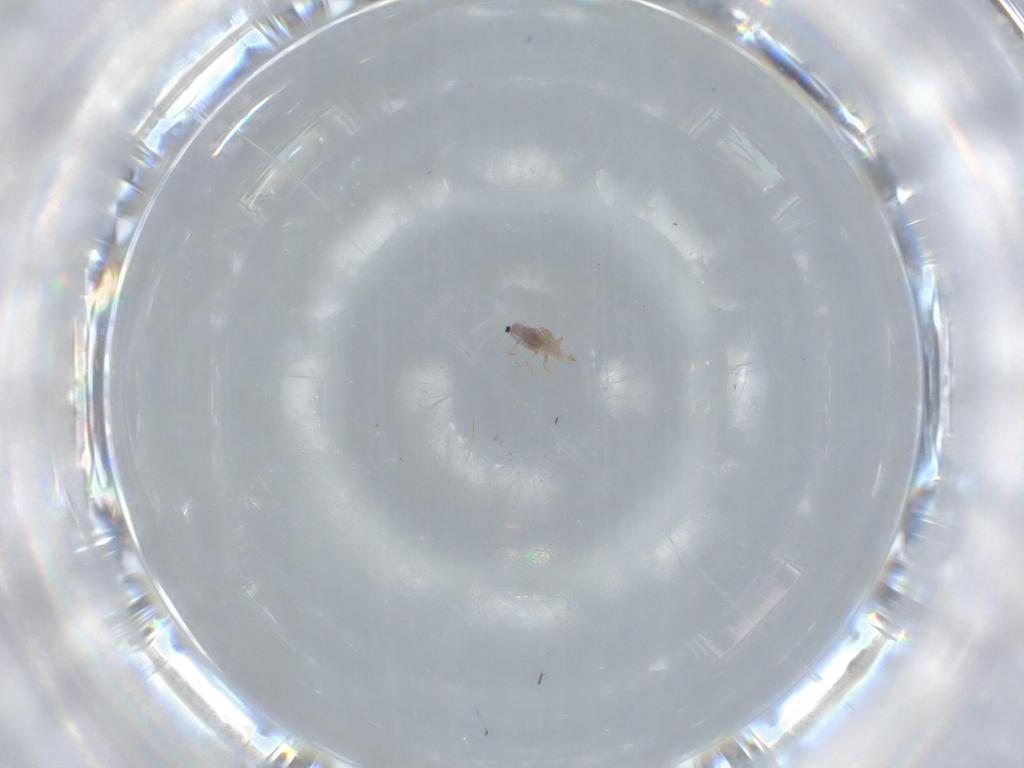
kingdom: Animalia
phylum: Arthropoda
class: Insecta
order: Hemiptera
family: Diaspididae
